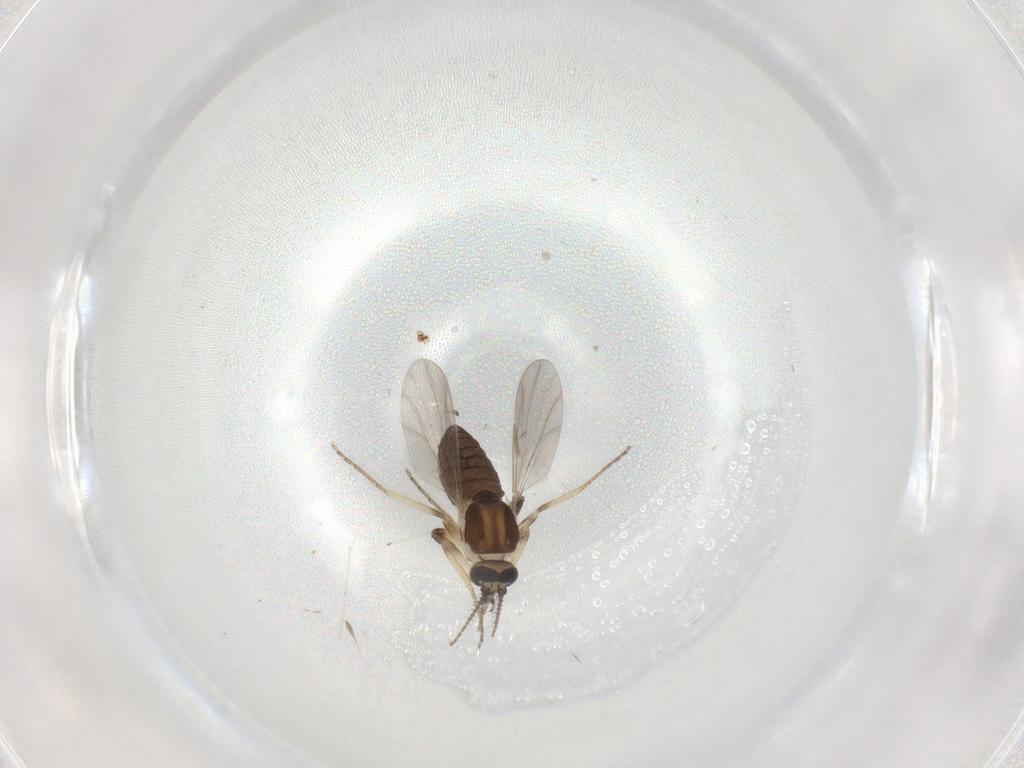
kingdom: Animalia
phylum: Arthropoda
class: Insecta
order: Diptera
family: Ceratopogonidae
